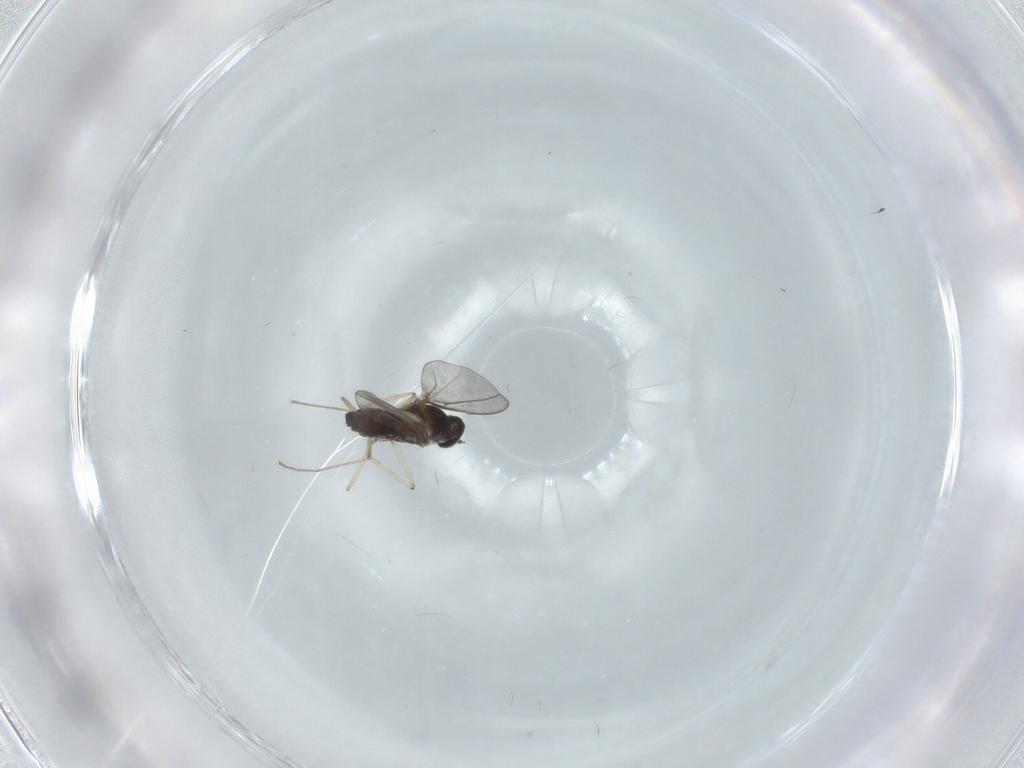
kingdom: Animalia
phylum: Arthropoda
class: Insecta
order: Diptera
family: Cecidomyiidae
